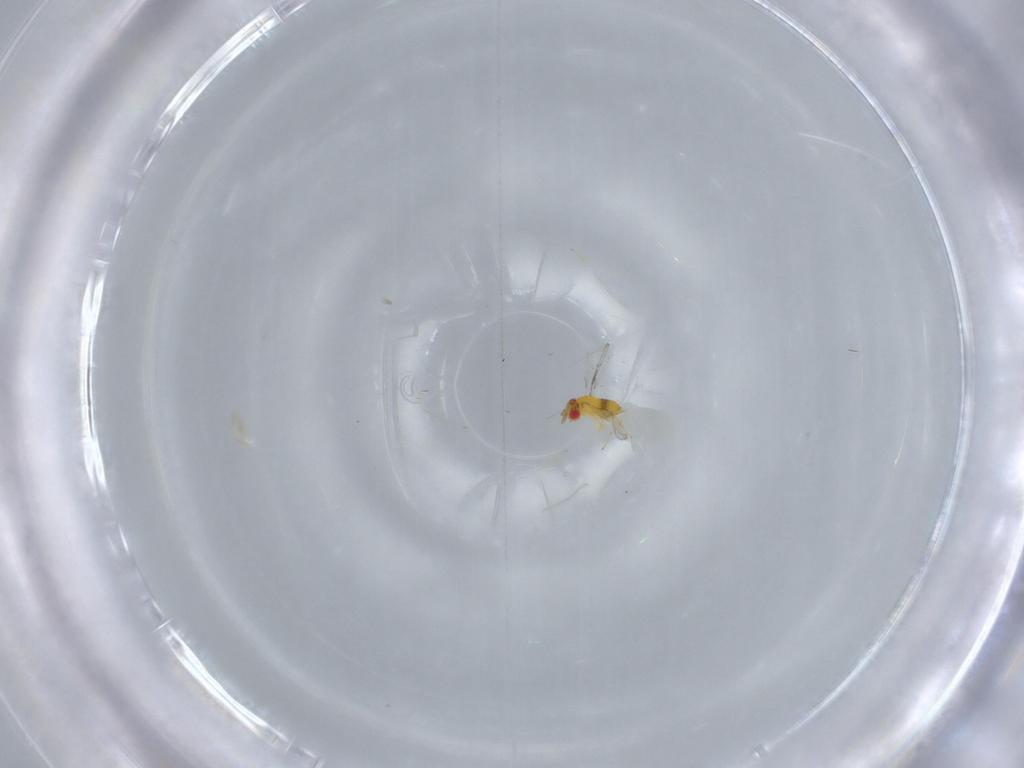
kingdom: Animalia
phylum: Arthropoda
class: Insecta
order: Hymenoptera
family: Trichogrammatidae
